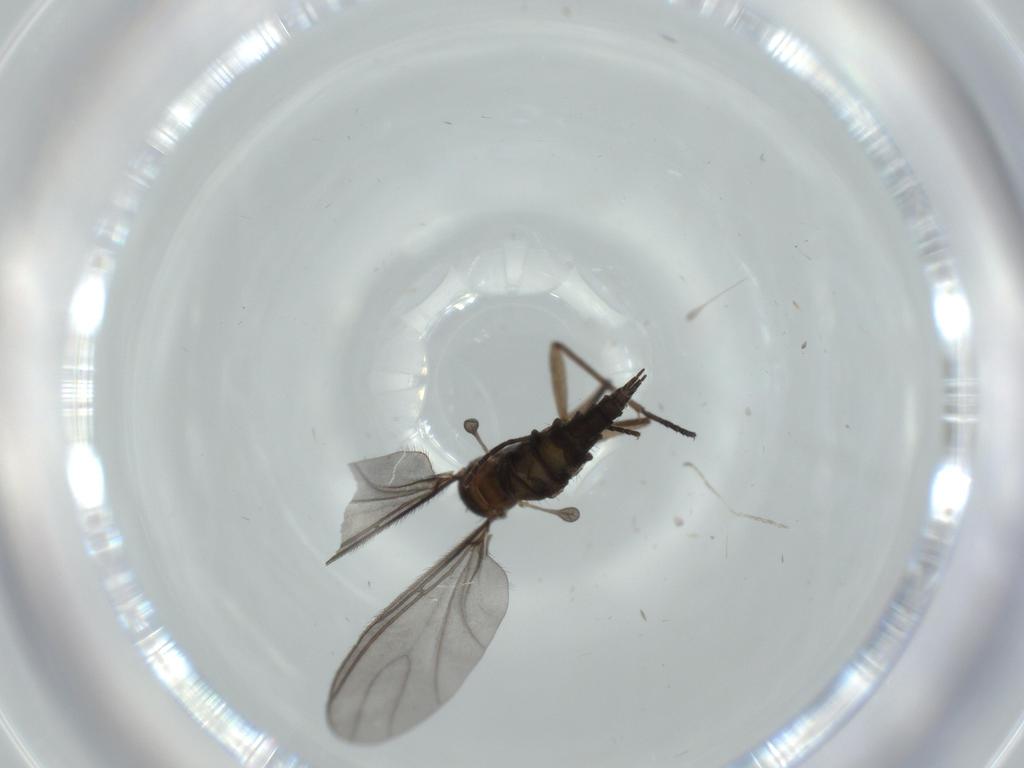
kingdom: Animalia
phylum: Arthropoda
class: Insecta
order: Diptera
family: Sciaridae
